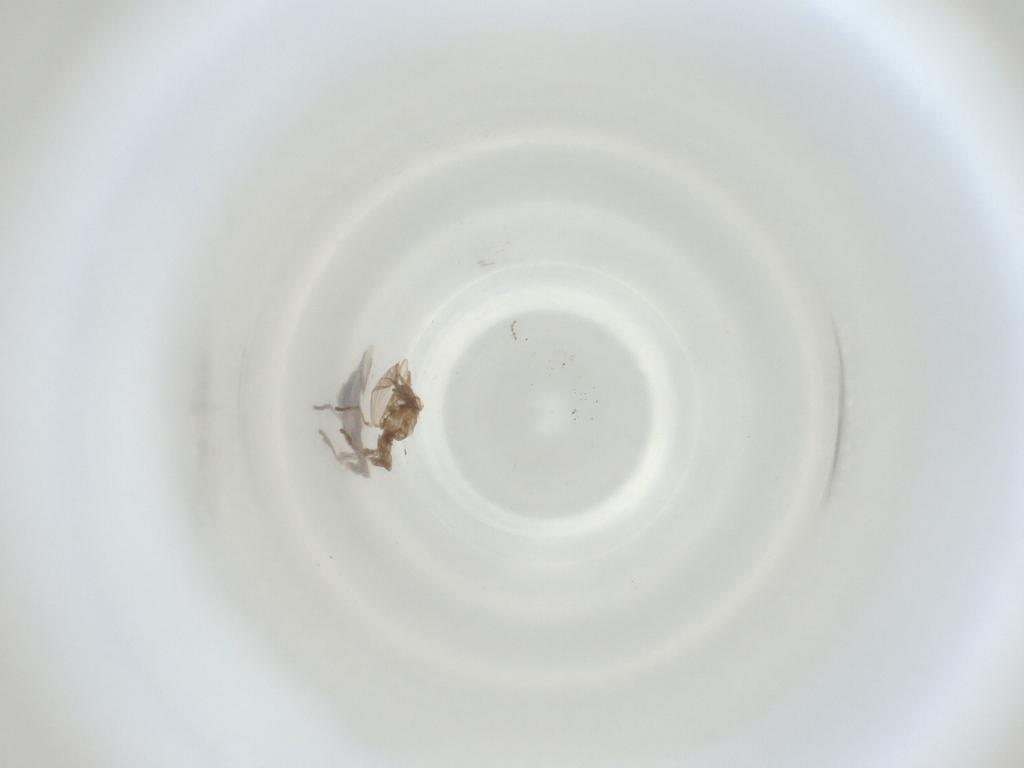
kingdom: Animalia
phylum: Arthropoda
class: Insecta
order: Diptera
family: Cecidomyiidae
